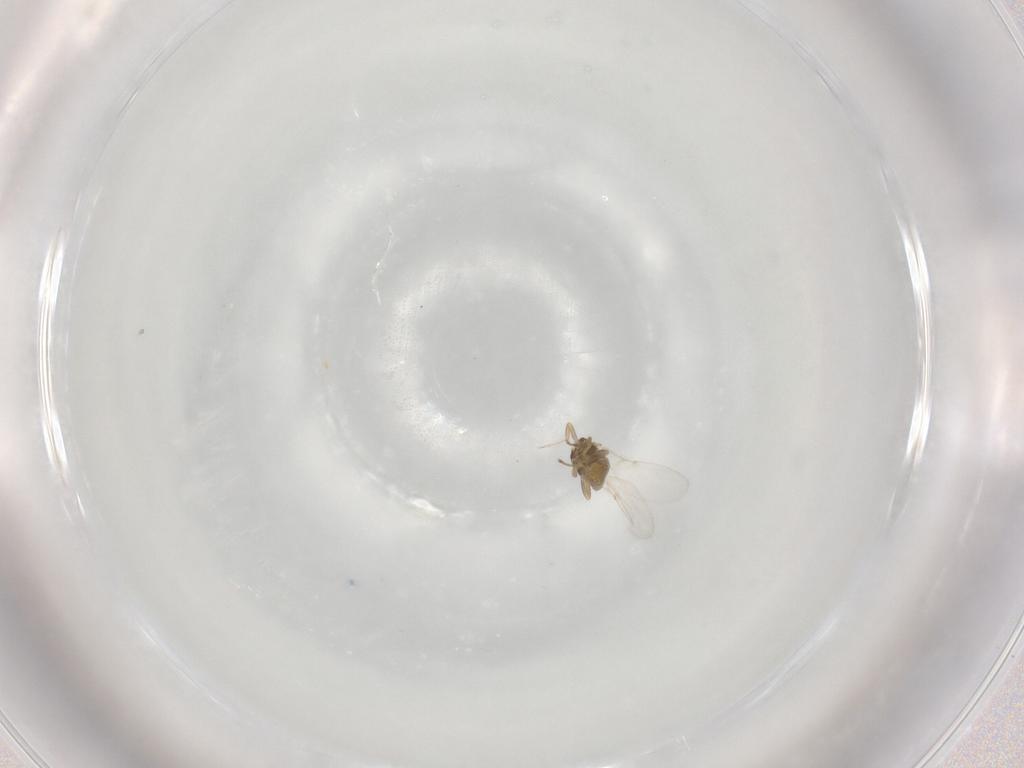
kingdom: Animalia
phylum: Arthropoda
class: Insecta
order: Hymenoptera
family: Encyrtidae
